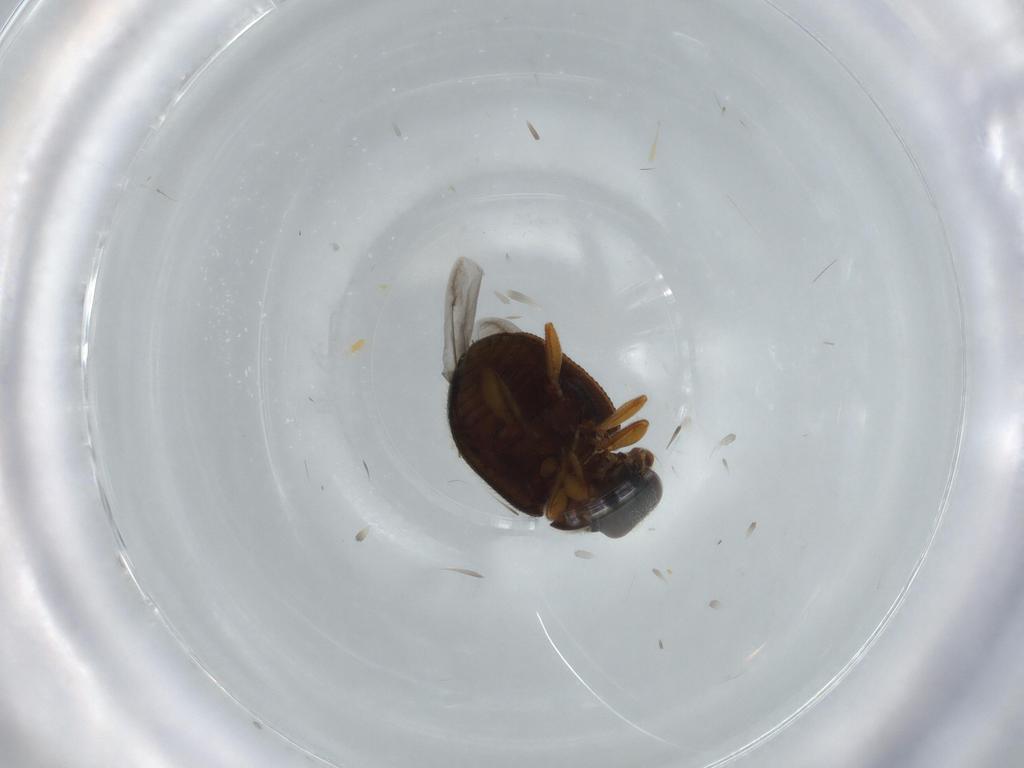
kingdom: Animalia
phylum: Arthropoda
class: Insecta
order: Coleoptera
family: Coccinellidae
